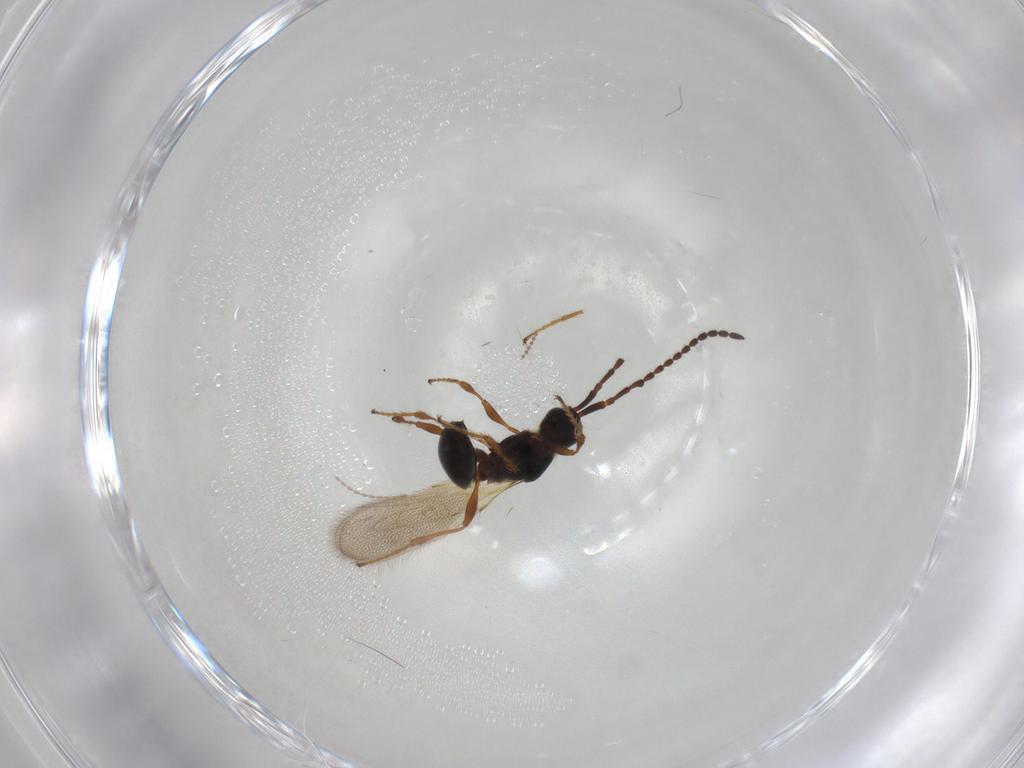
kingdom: Animalia
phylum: Arthropoda
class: Insecta
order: Hymenoptera
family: Diapriidae
